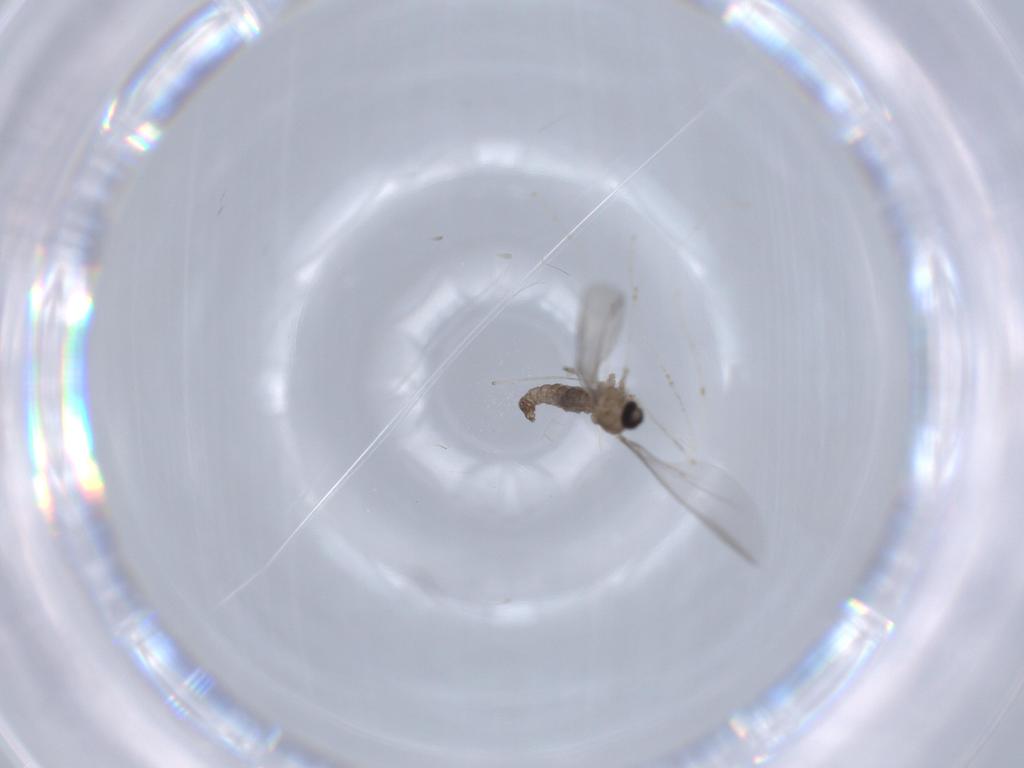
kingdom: Animalia
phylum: Arthropoda
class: Insecta
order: Diptera
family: Cecidomyiidae
